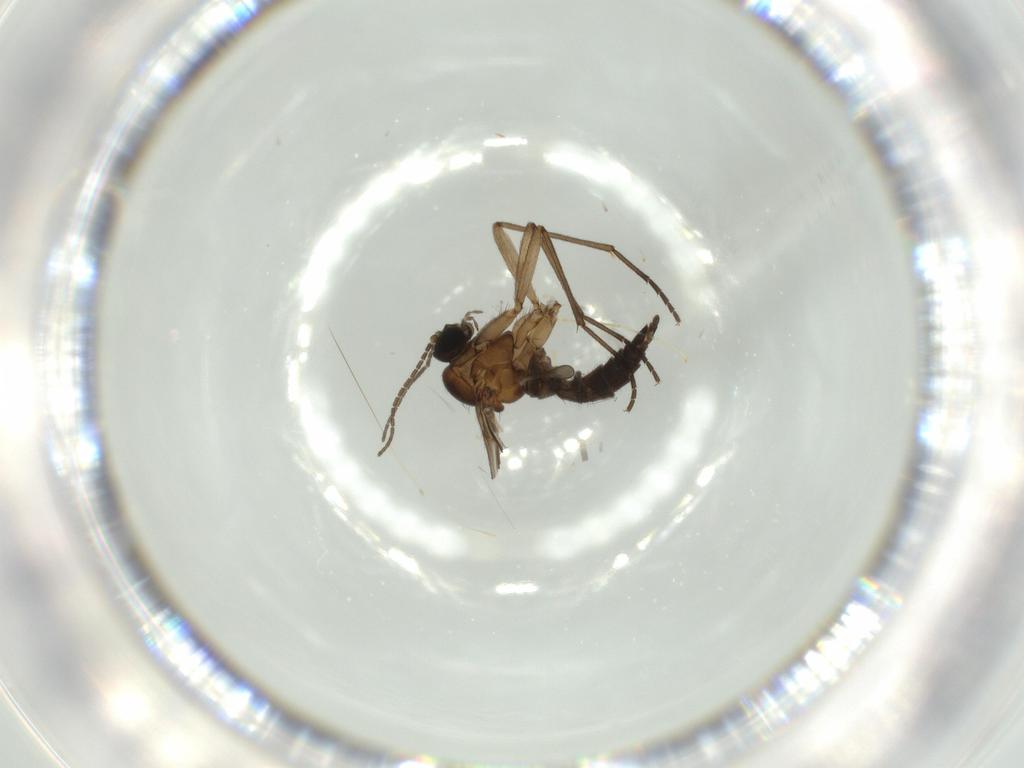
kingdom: Animalia
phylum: Arthropoda
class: Insecta
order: Diptera
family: Sciaridae
